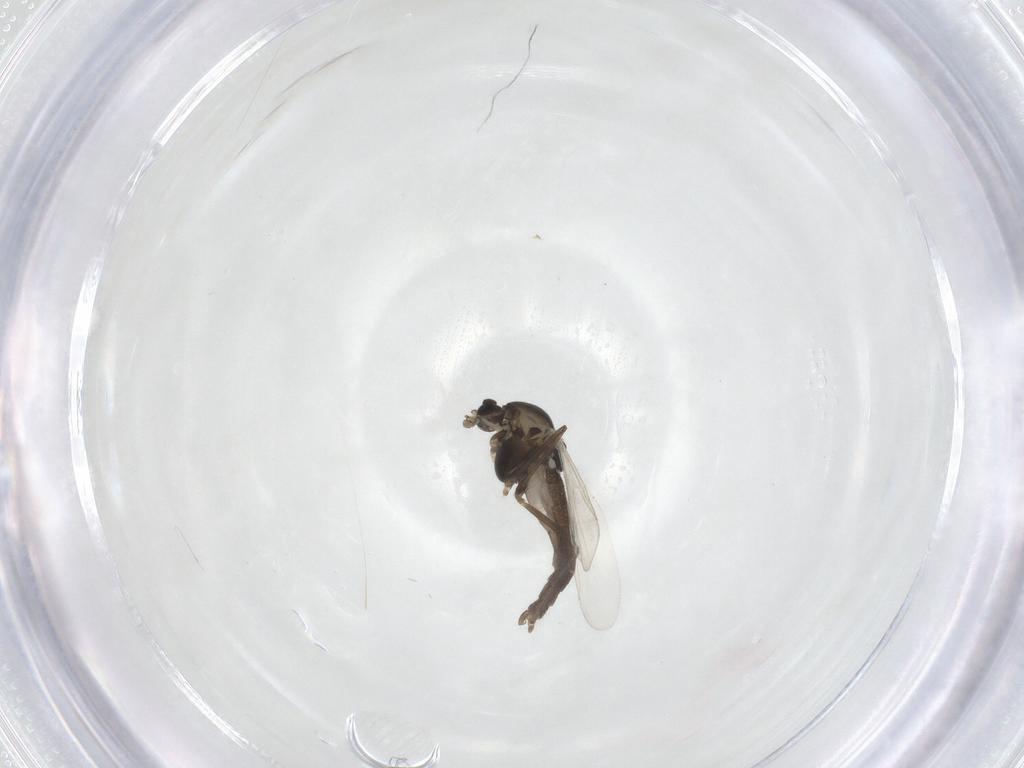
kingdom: Animalia
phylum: Arthropoda
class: Insecta
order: Diptera
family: Chironomidae
